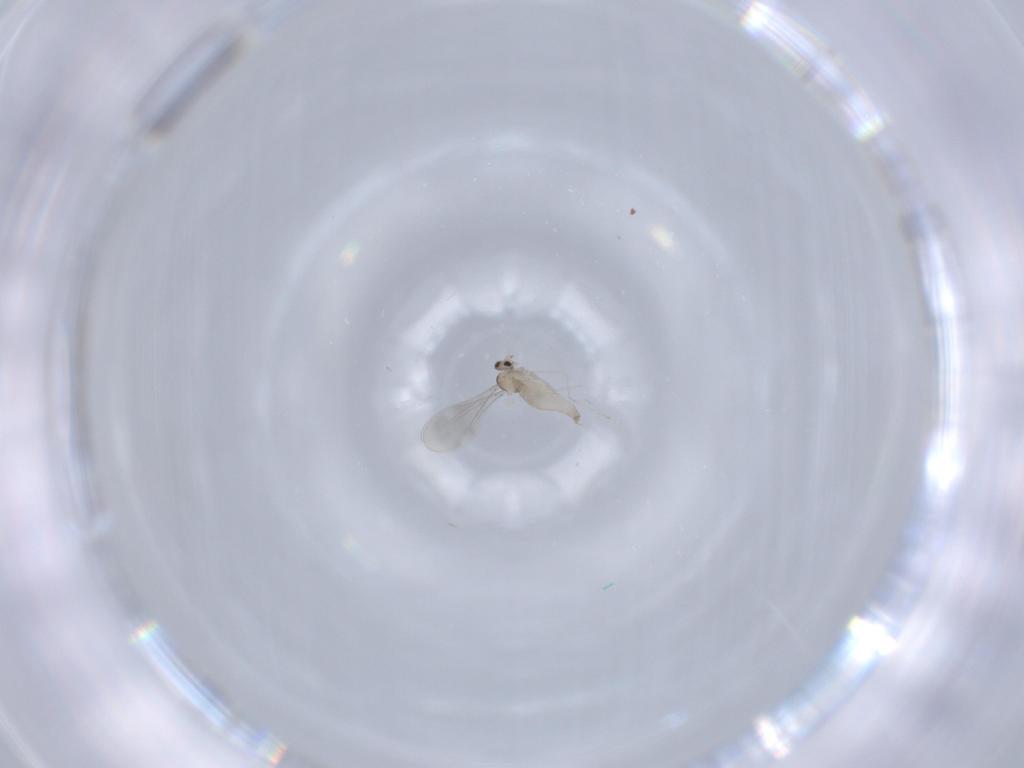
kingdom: Animalia
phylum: Arthropoda
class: Insecta
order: Diptera
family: Cecidomyiidae
